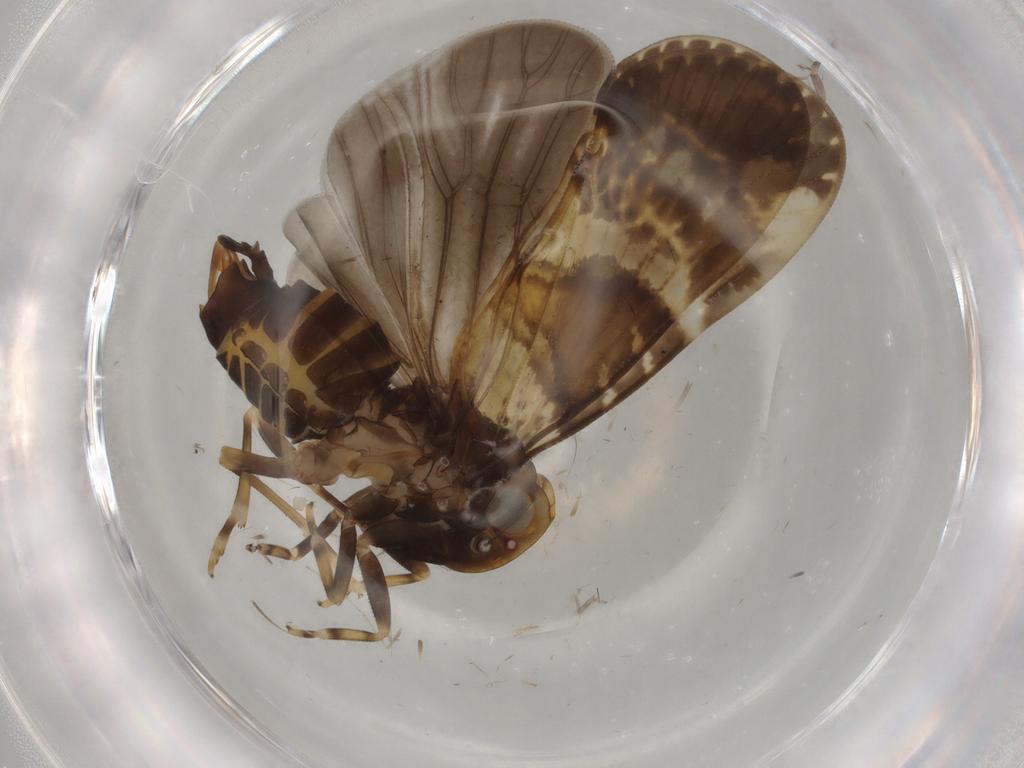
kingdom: Animalia
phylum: Arthropoda
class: Insecta
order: Hemiptera
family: Cixiidae
